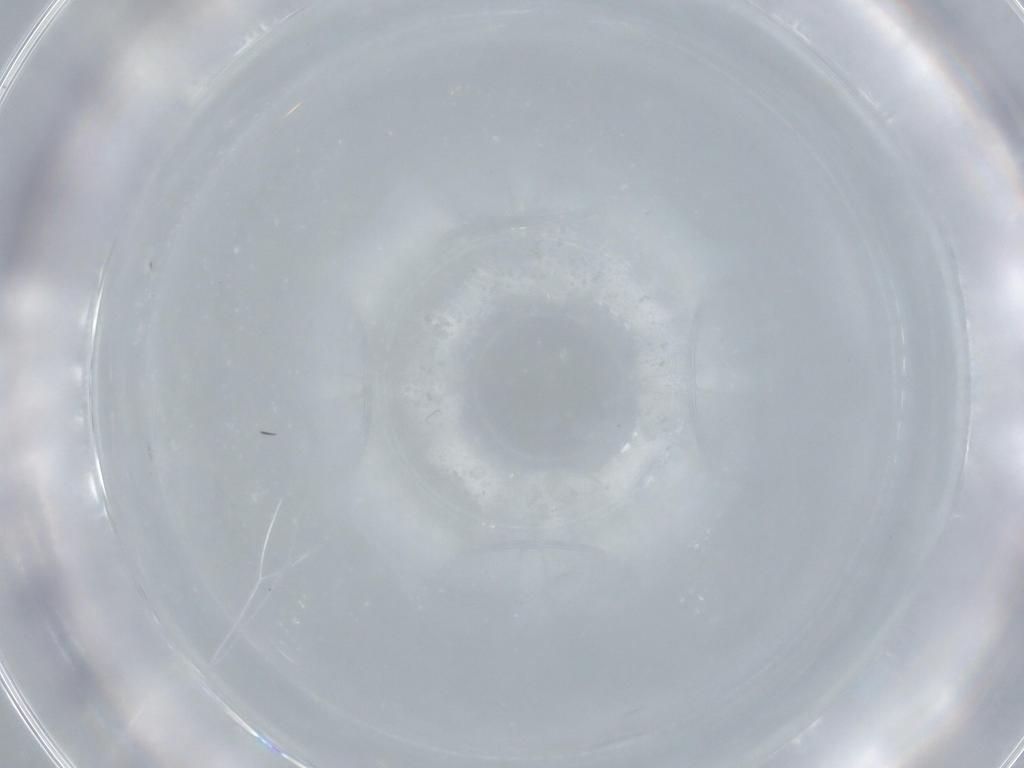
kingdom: Animalia
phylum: Arthropoda
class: Insecta
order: Diptera
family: Cecidomyiidae
